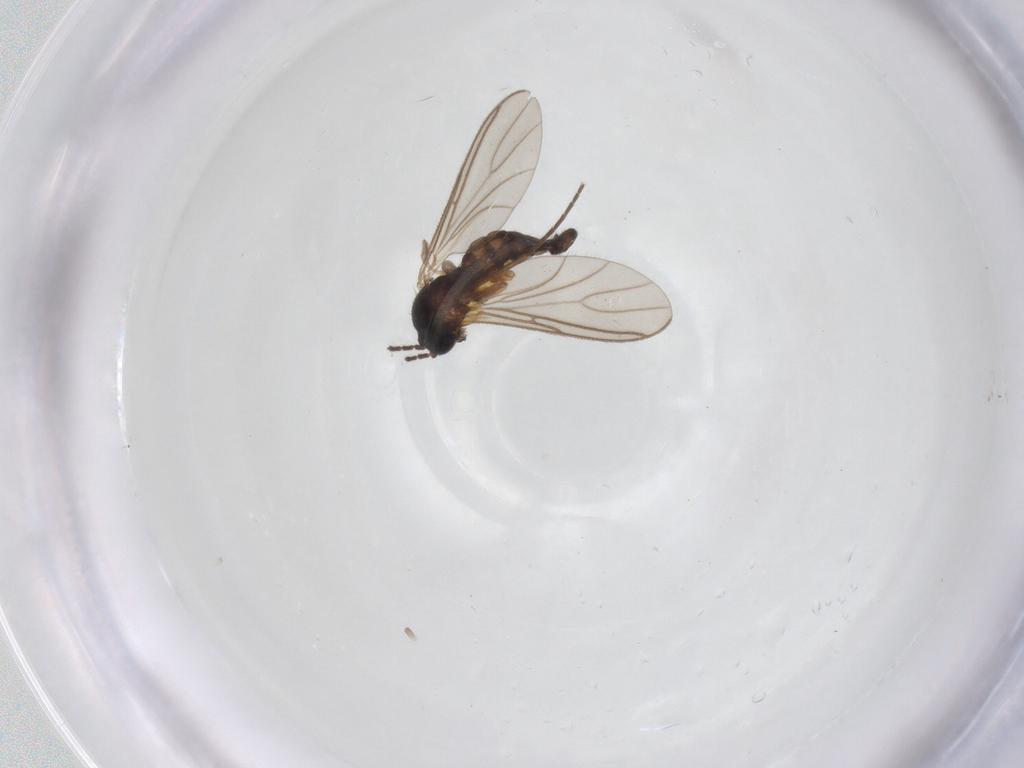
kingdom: Animalia
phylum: Arthropoda
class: Insecta
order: Diptera
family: Sciaridae
